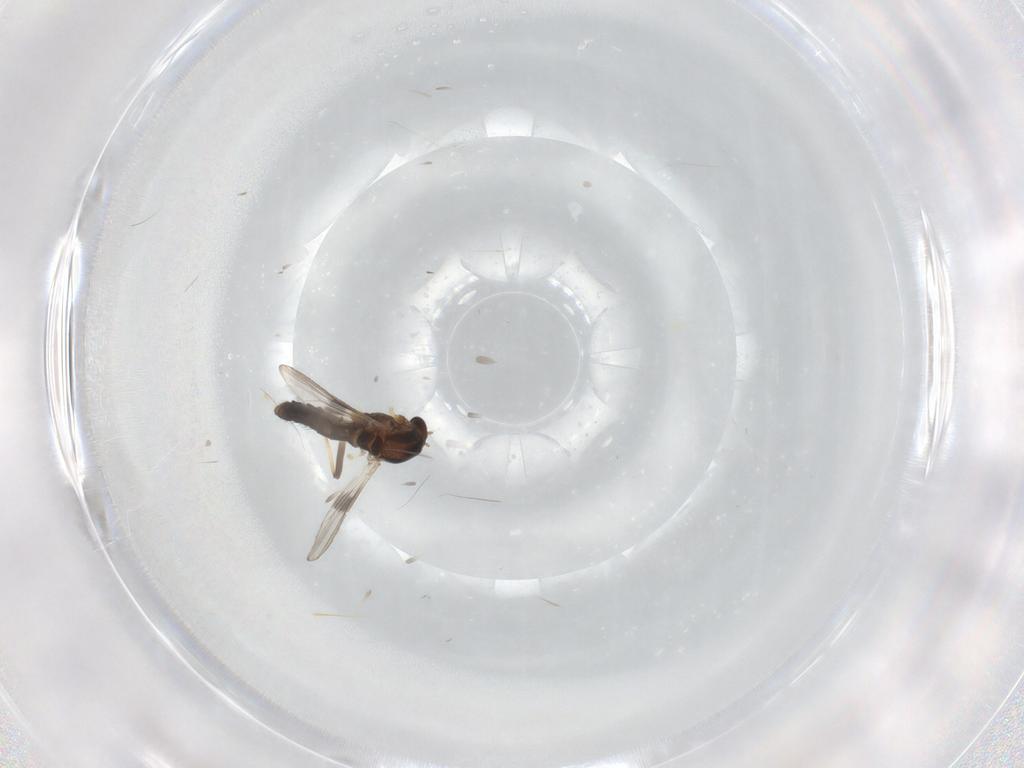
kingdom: Animalia
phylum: Arthropoda
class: Insecta
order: Diptera
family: Dolichopodidae
